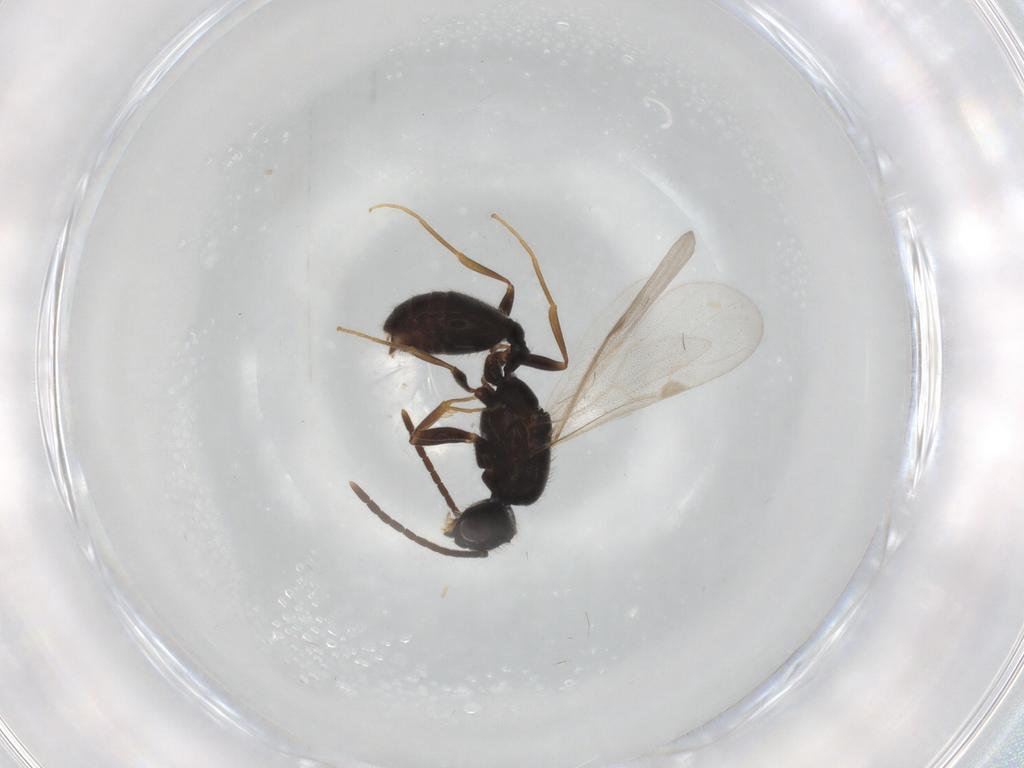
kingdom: Animalia
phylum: Arthropoda
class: Insecta
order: Hymenoptera
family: Formicidae
